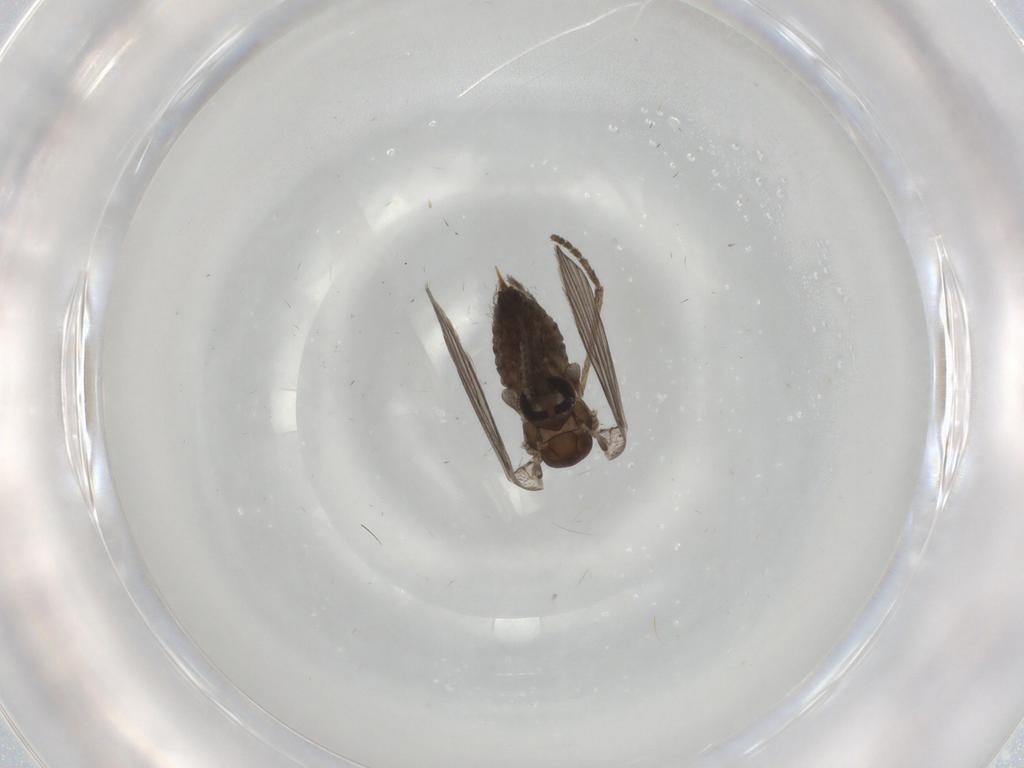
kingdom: Animalia
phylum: Arthropoda
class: Insecta
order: Diptera
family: Psychodidae
